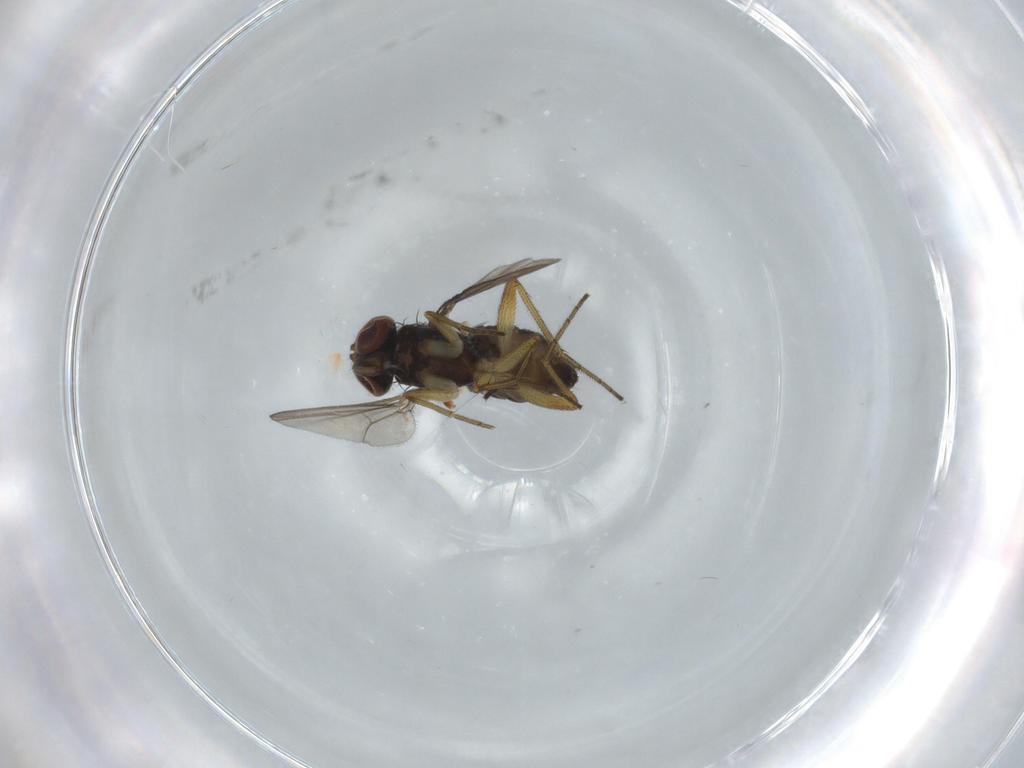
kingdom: Animalia
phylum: Arthropoda
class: Insecta
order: Diptera
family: Dolichopodidae
